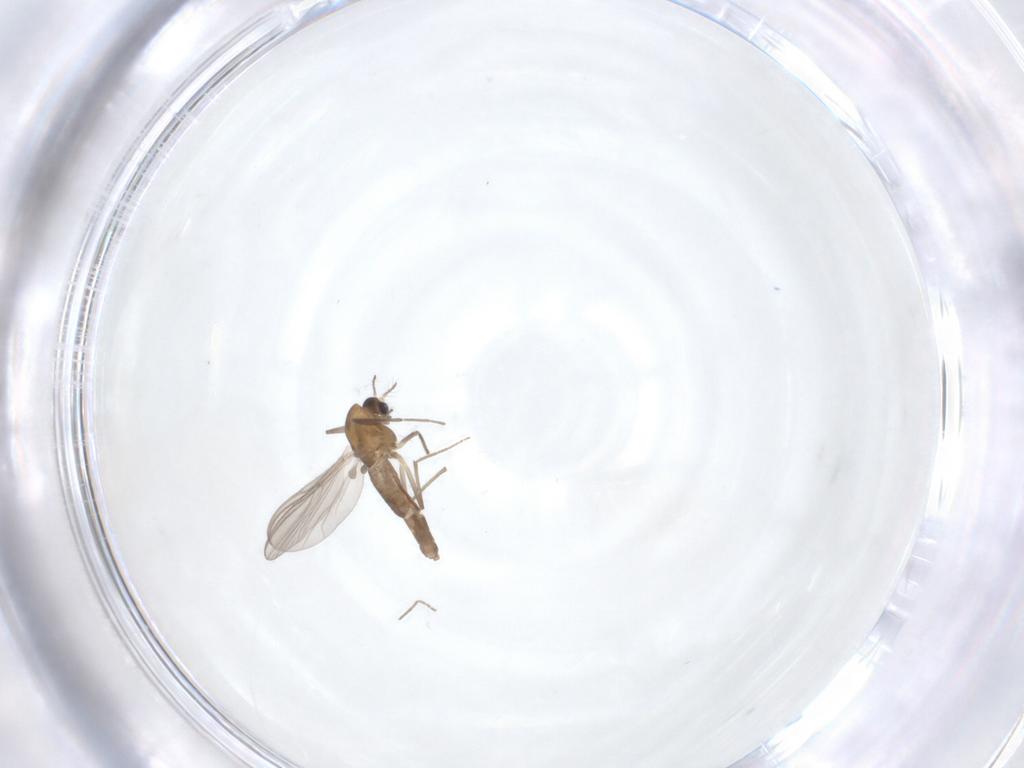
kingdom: Animalia
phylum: Arthropoda
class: Insecta
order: Diptera
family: Chironomidae
